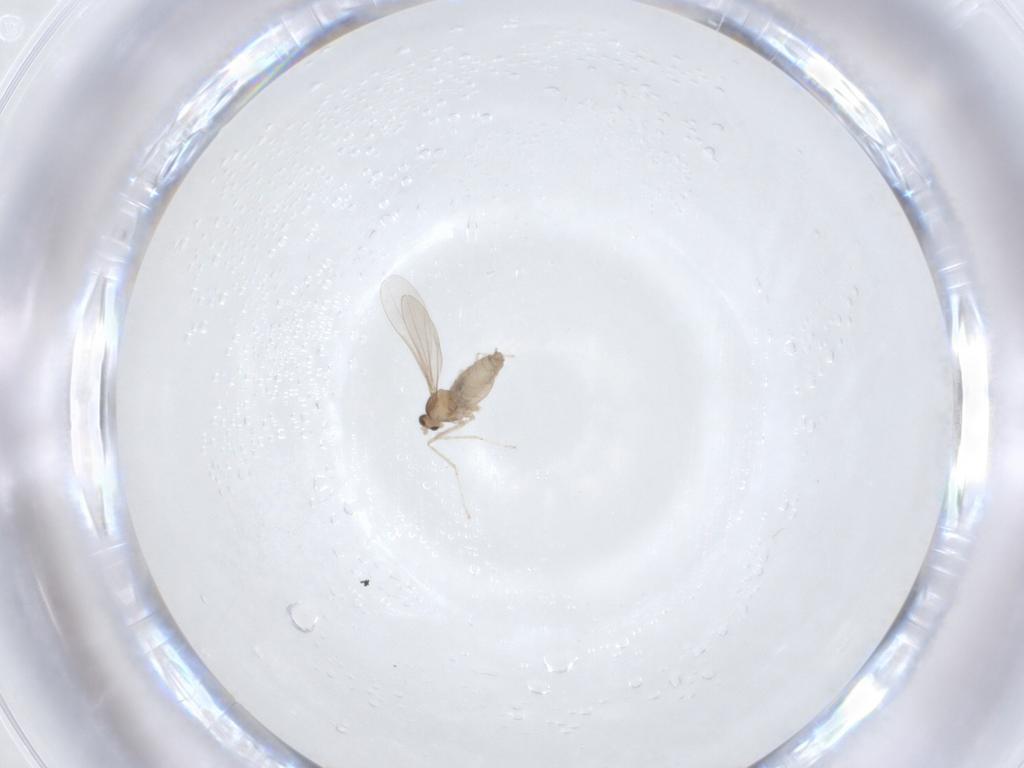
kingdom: Animalia
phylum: Arthropoda
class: Insecta
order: Diptera
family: Cecidomyiidae
